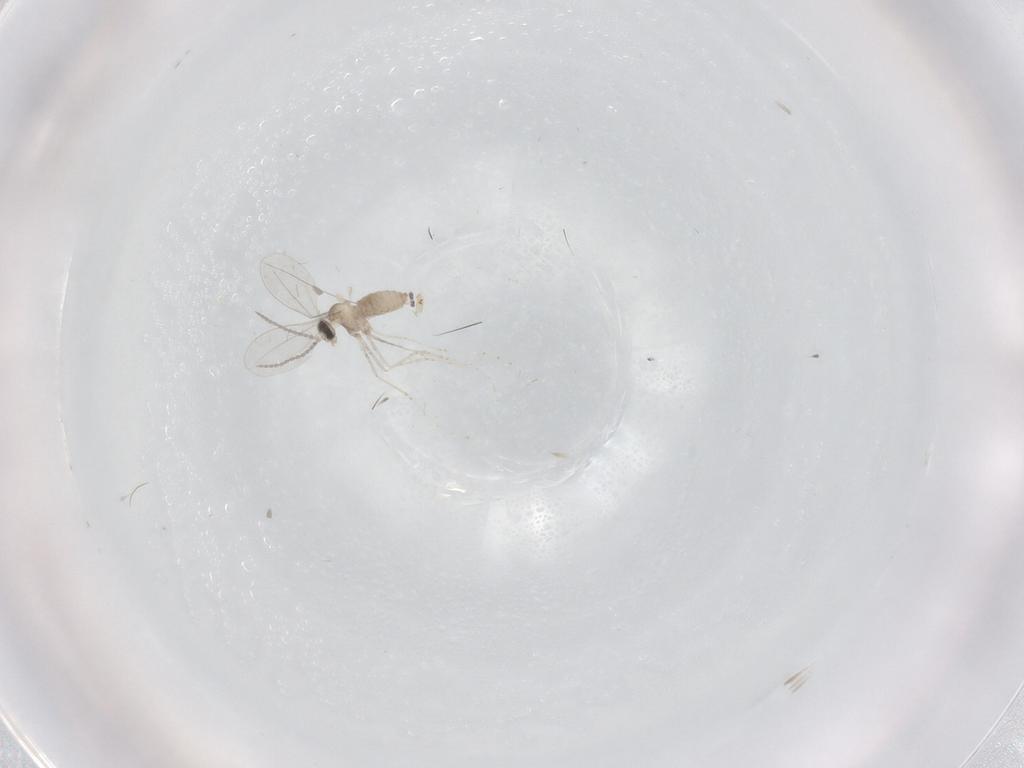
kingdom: Animalia
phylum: Arthropoda
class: Insecta
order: Diptera
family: Cecidomyiidae
